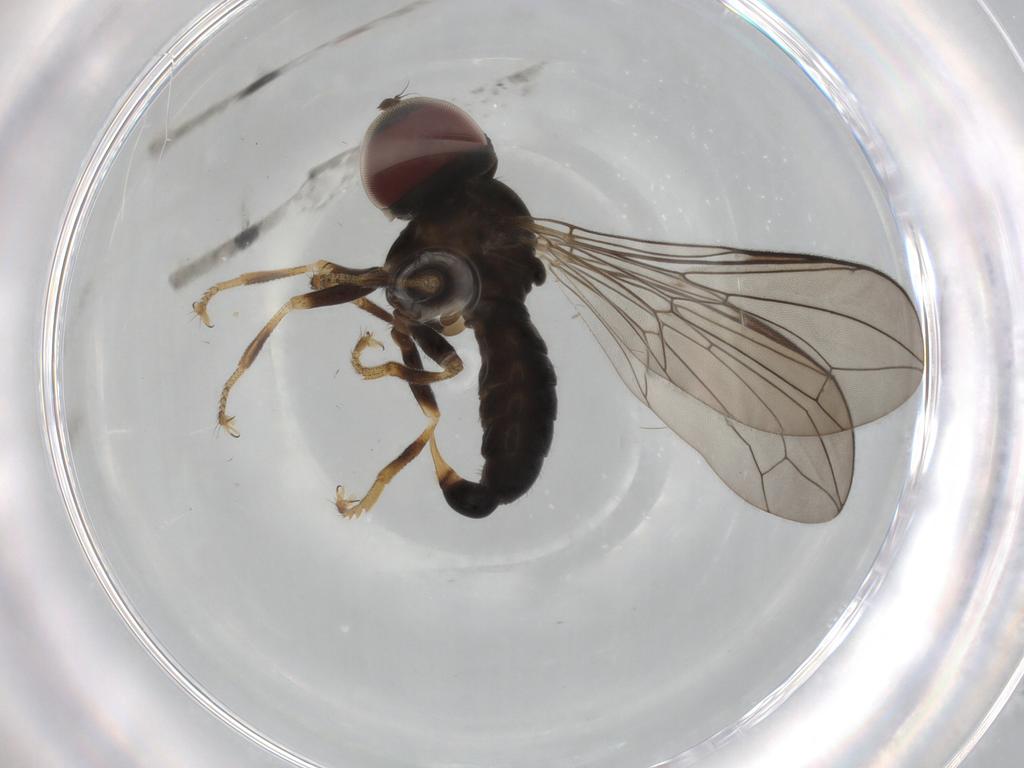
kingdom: Animalia
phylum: Arthropoda
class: Insecta
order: Diptera
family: Pipunculidae
